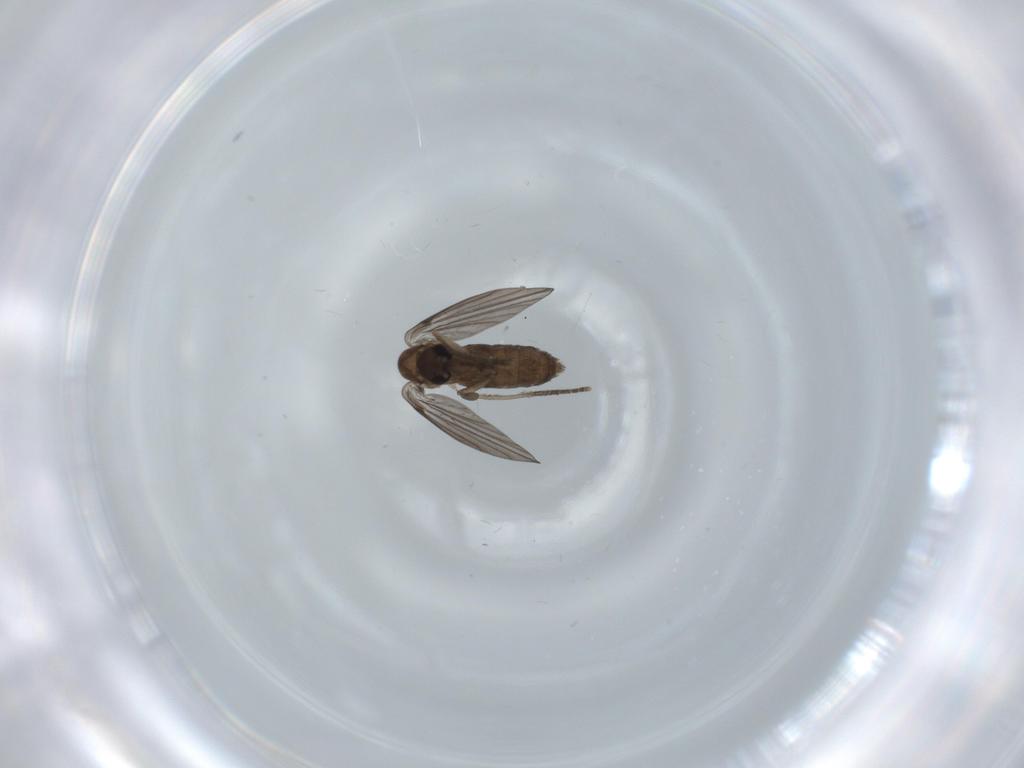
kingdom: Animalia
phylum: Arthropoda
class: Insecta
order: Diptera
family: Psychodidae
